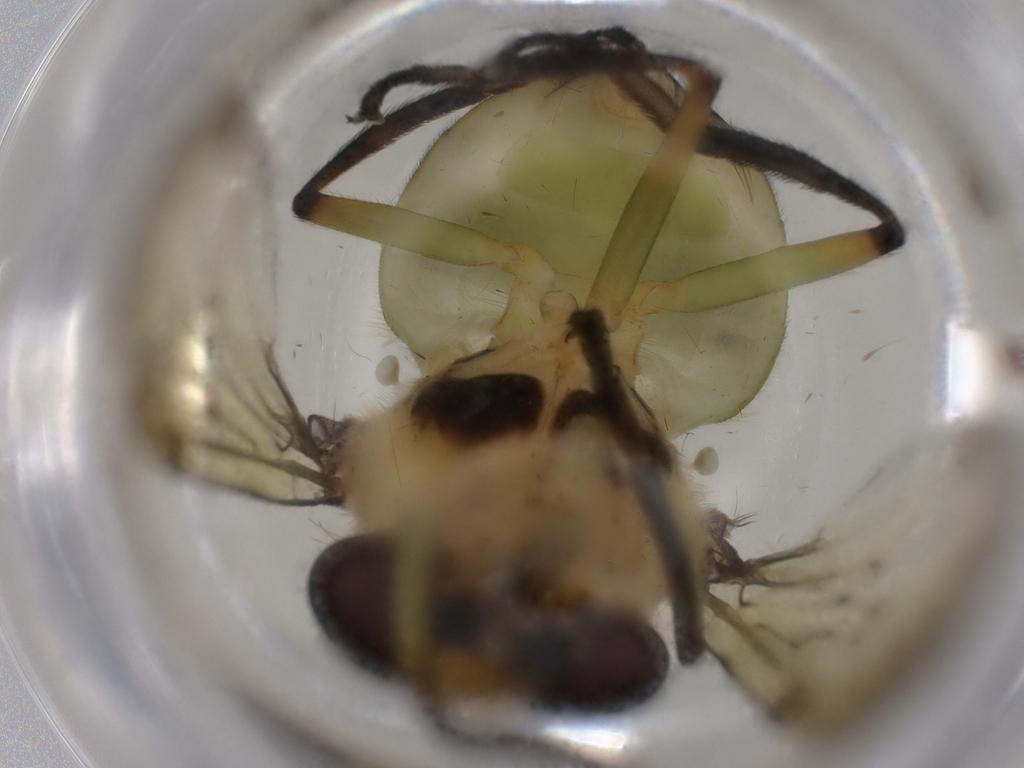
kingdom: Animalia
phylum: Arthropoda
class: Insecta
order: Diptera
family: Syrphidae
